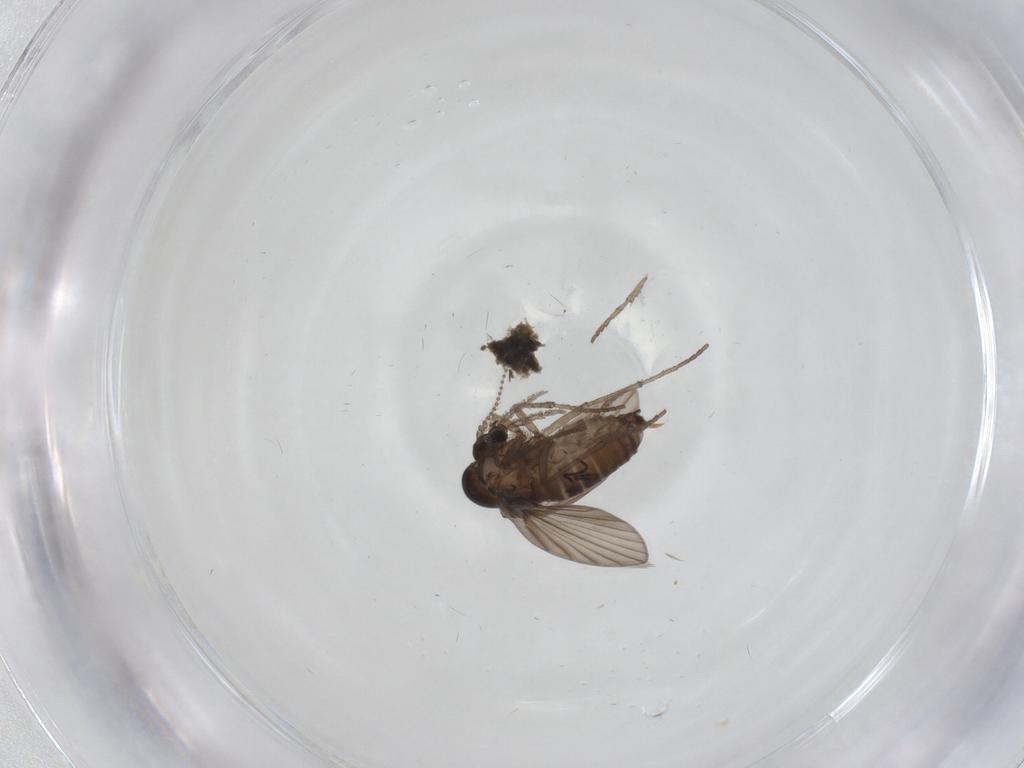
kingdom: Animalia
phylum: Arthropoda
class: Insecta
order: Diptera
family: Psychodidae
